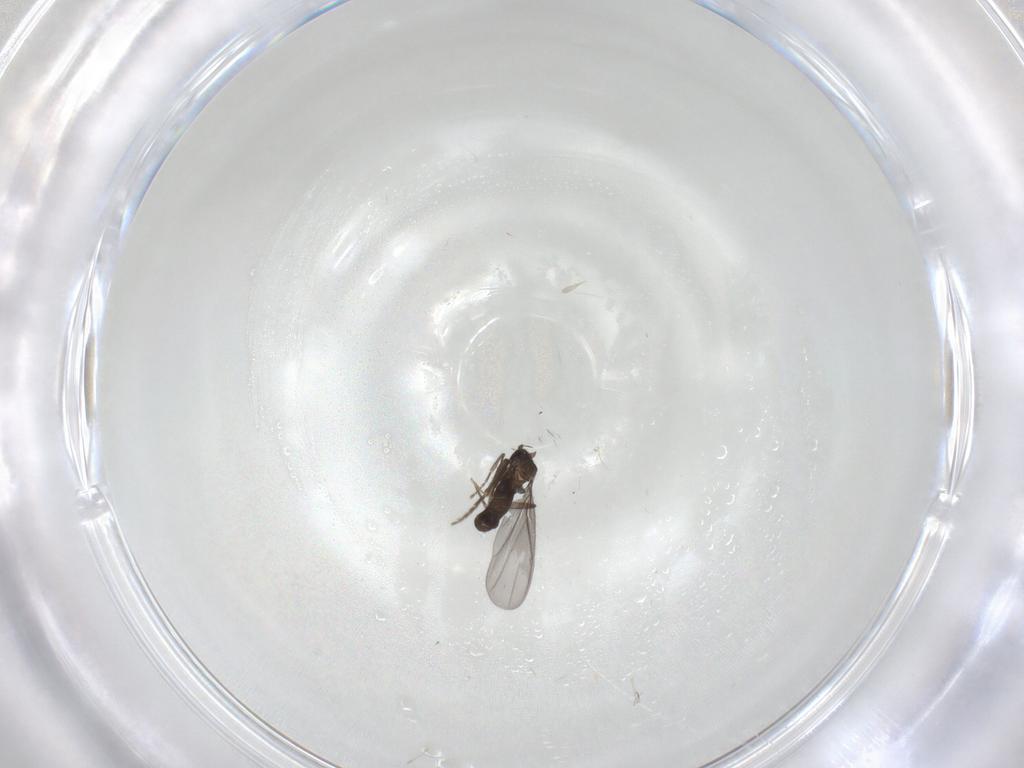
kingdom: Animalia
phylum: Arthropoda
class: Insecta
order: Diptera
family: Phoridae
